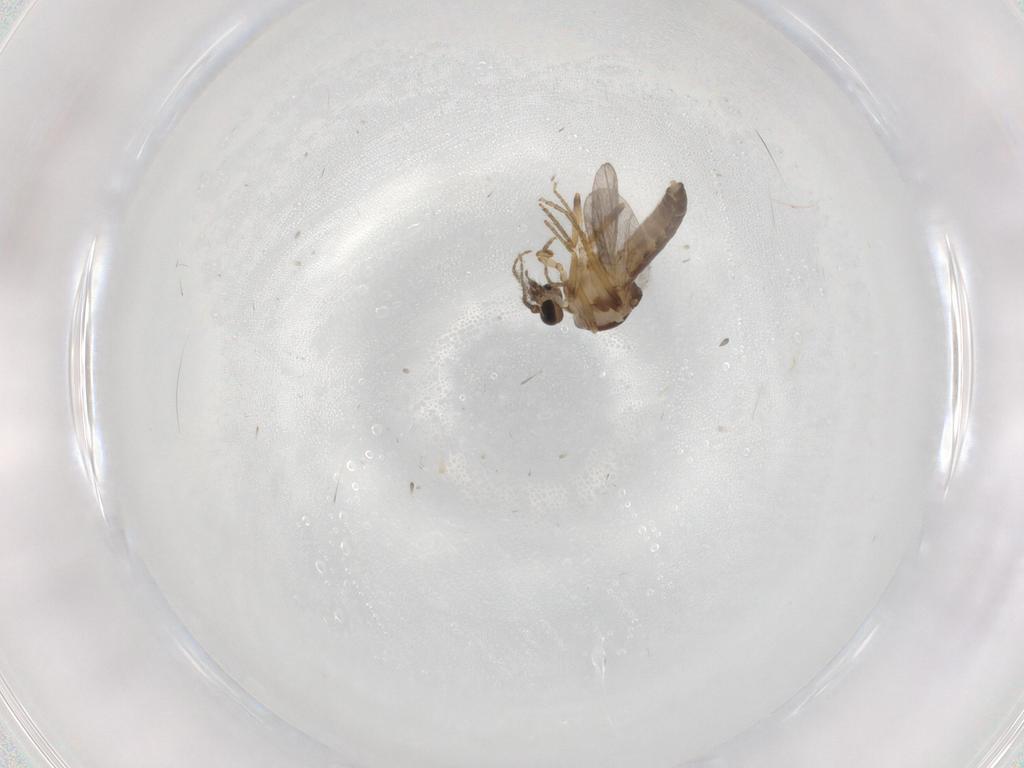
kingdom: Animalia
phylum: Arthropoda
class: Insecta
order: Diptera
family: Ceratopogonidae
